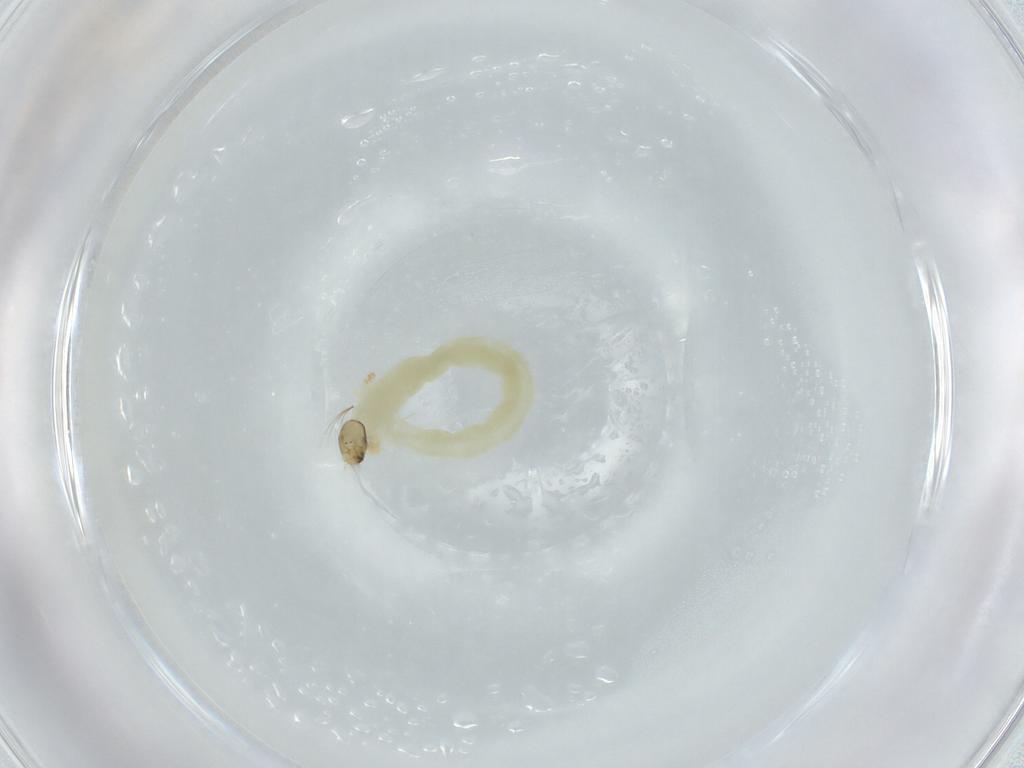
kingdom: Animalia
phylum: Arthropoda
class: Insecta
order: Diptera
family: Chironomidae
